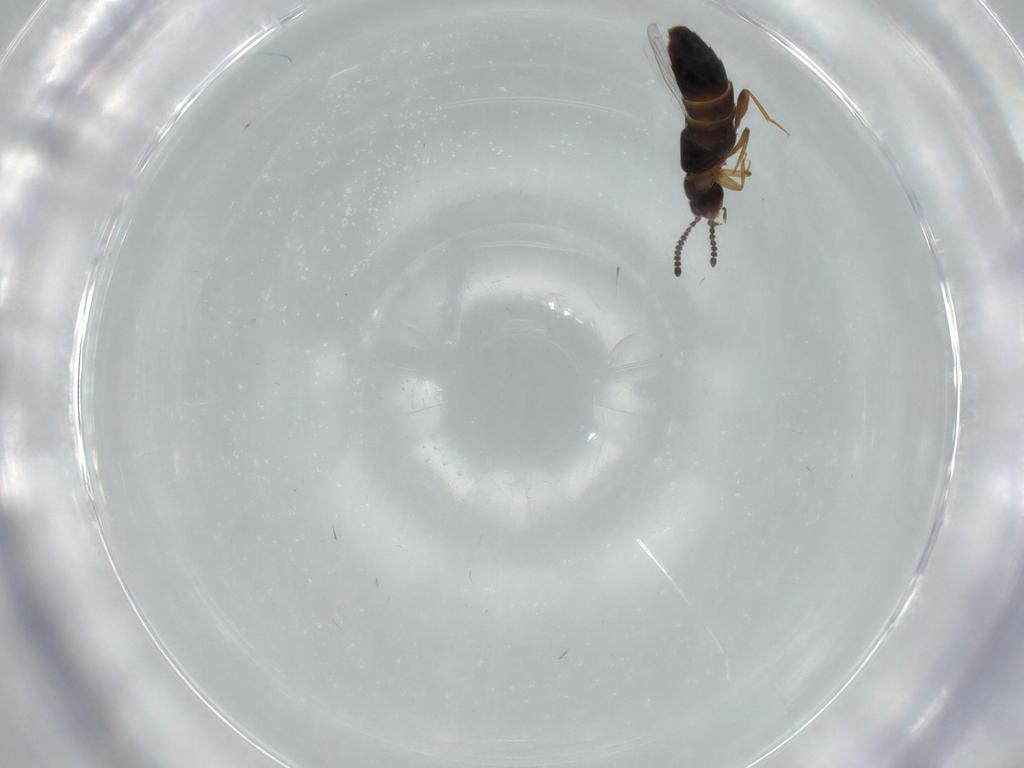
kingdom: Animalia
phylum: Arthropoda
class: Insecta
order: Coleoptera
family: Staphylinidae
